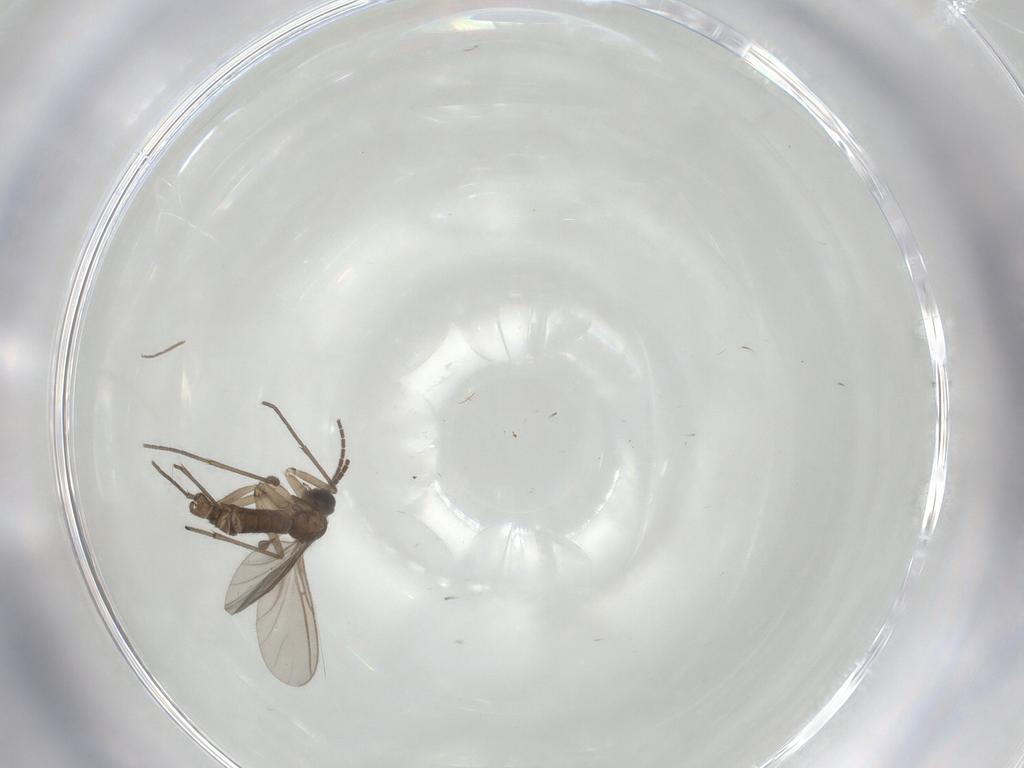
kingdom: Animalia
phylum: Arthropoda
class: Insecta
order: Diptera
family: Sciaridae
